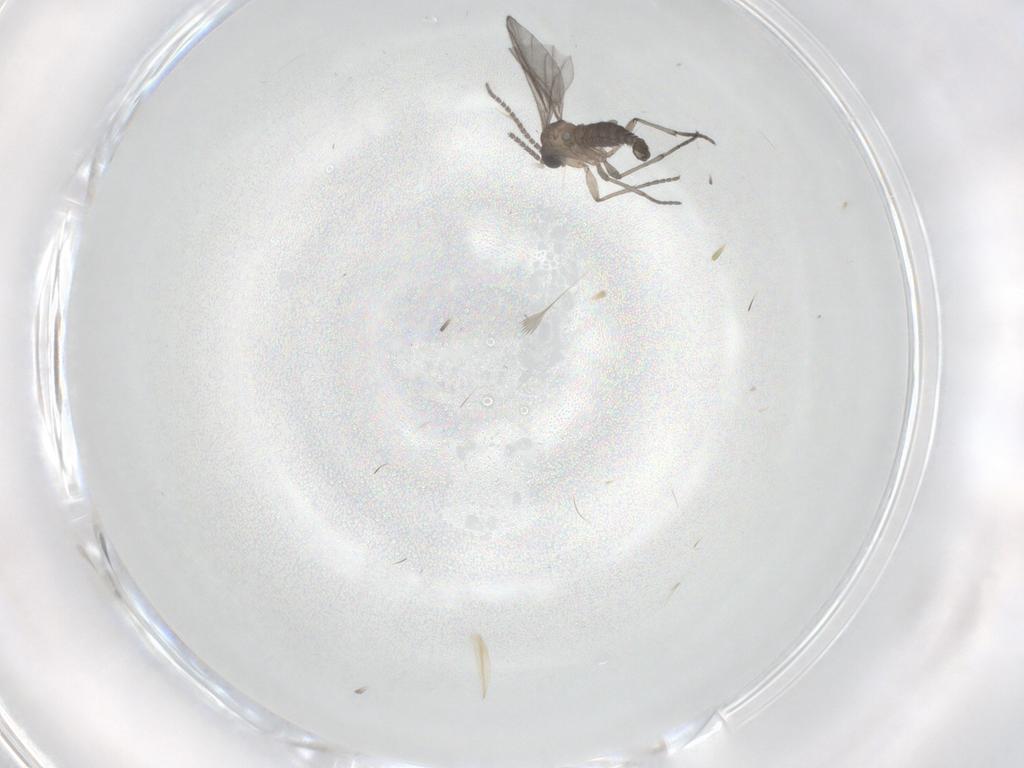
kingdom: Animalia
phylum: Arthropoda
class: Insecta
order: Diptera
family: Sciaridae
